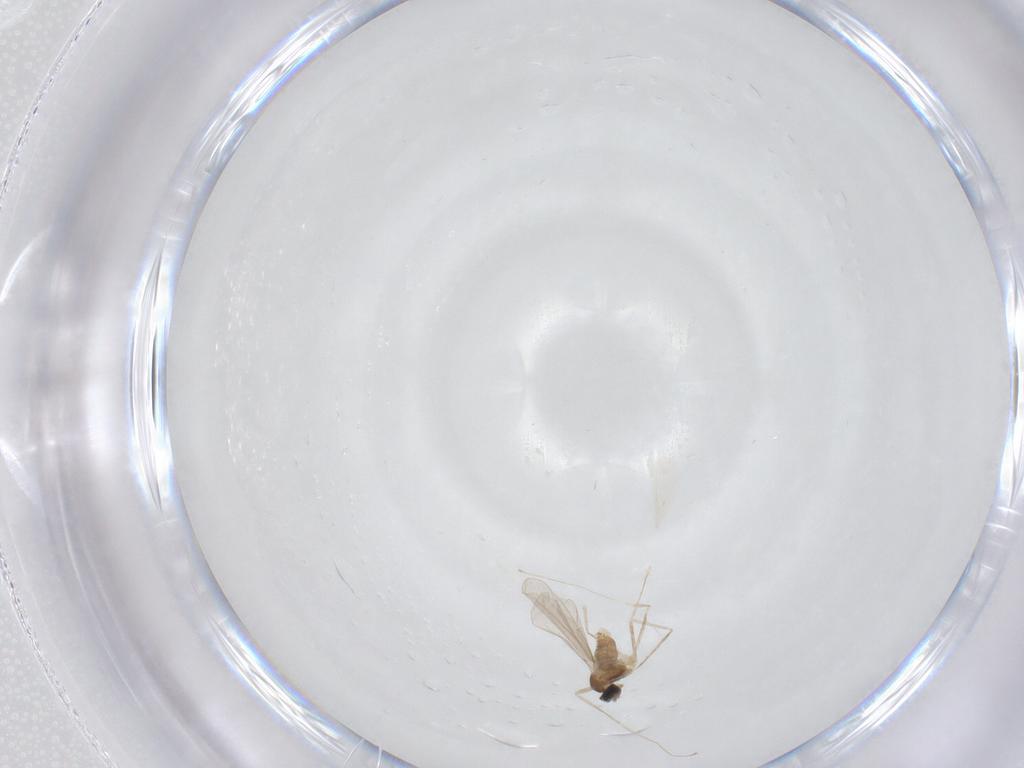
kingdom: Animalia
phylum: Arthropoda
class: Insecta
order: Diptera
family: Cecidomyiidae
